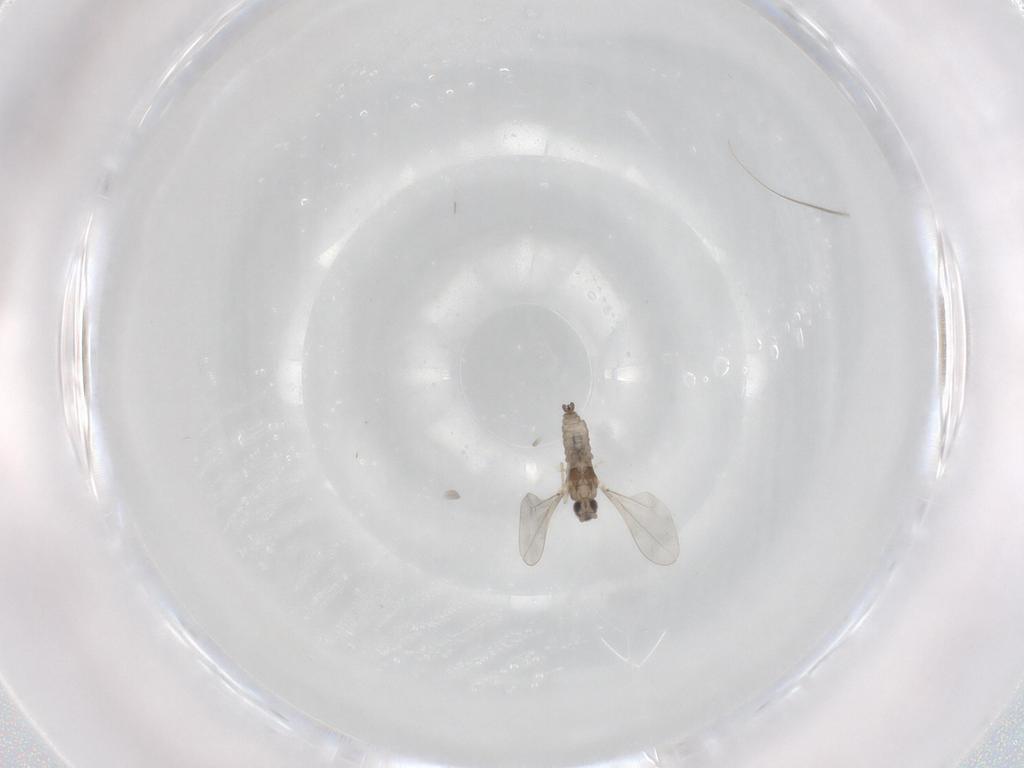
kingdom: Animalia
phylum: Arthropoda
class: Insecta
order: Diptera
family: Cecidomyiidae
